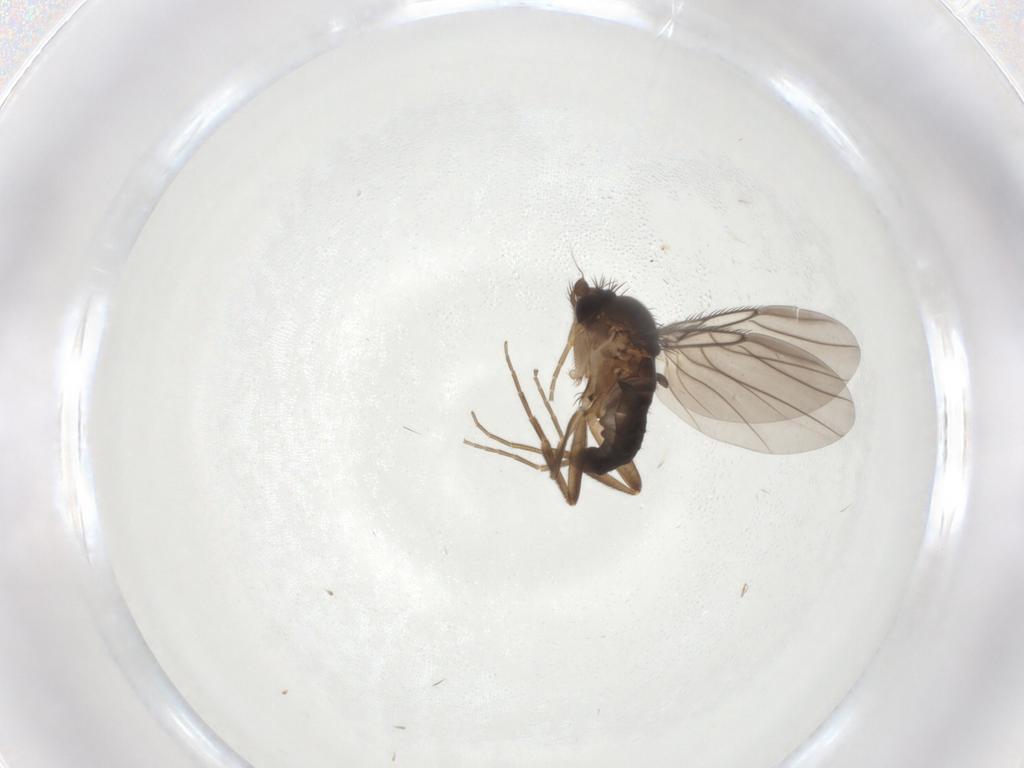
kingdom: Animalia
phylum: Arthropoda
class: Insecta
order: Diptera
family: Phoridae
